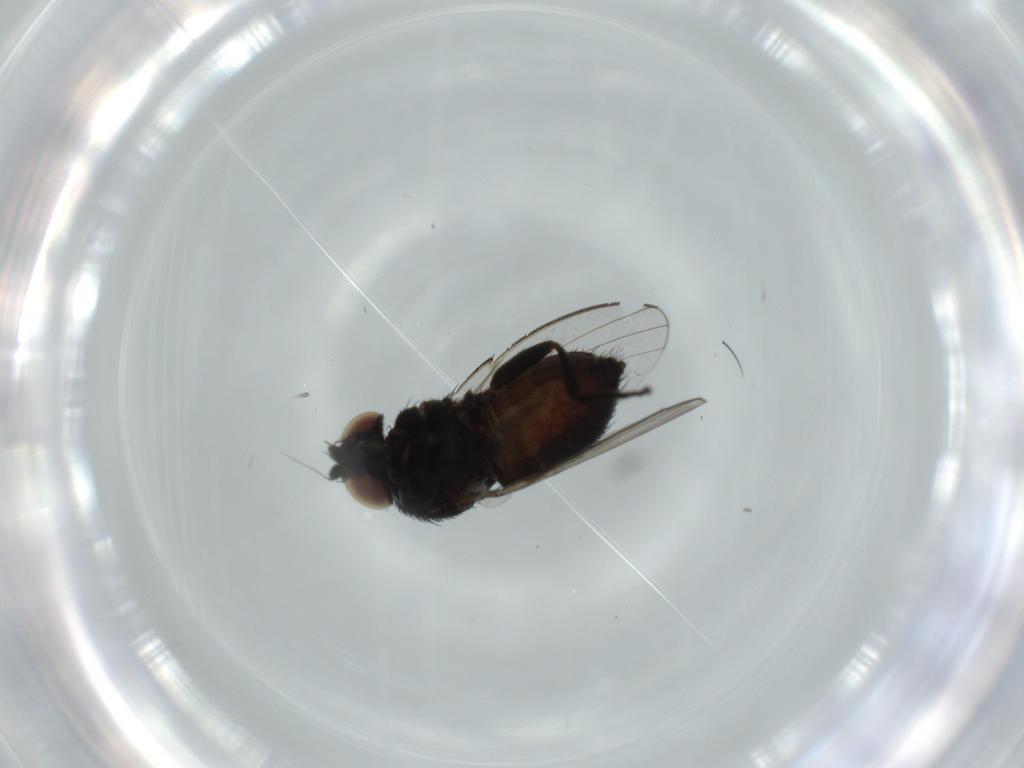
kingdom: Animalia
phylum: Arthropoda
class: Insecta
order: Diptera
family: Milichiidae
